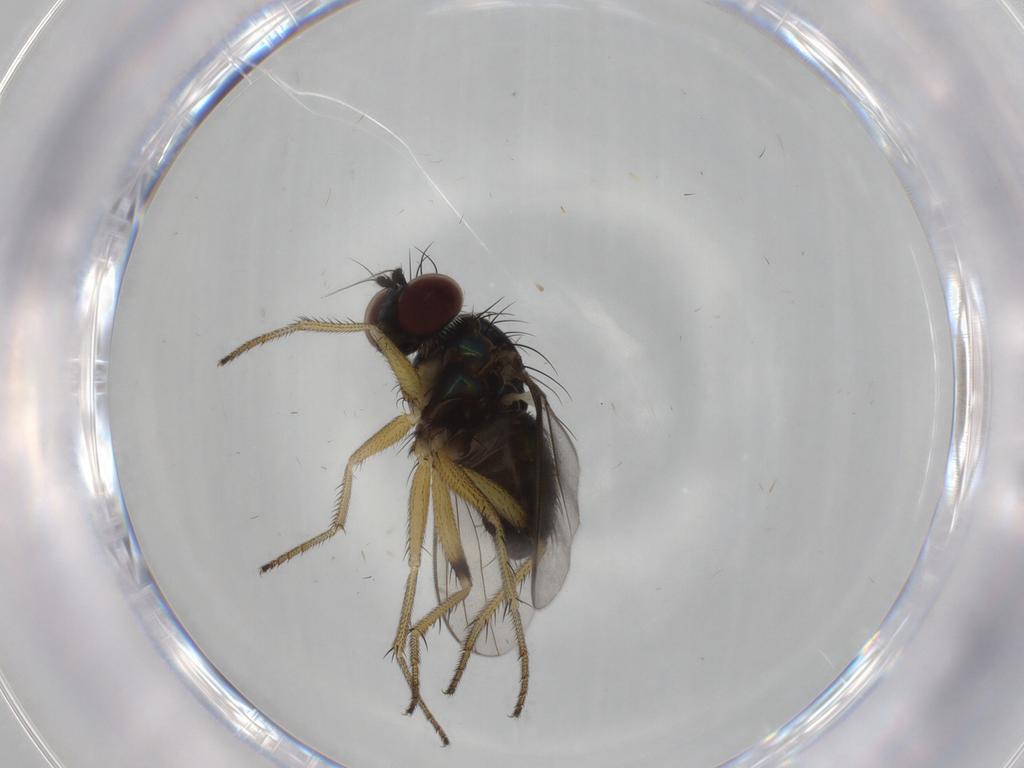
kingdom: Animalia
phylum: Arthropoda
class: Insecta
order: Diptera
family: Dolichopodidae
